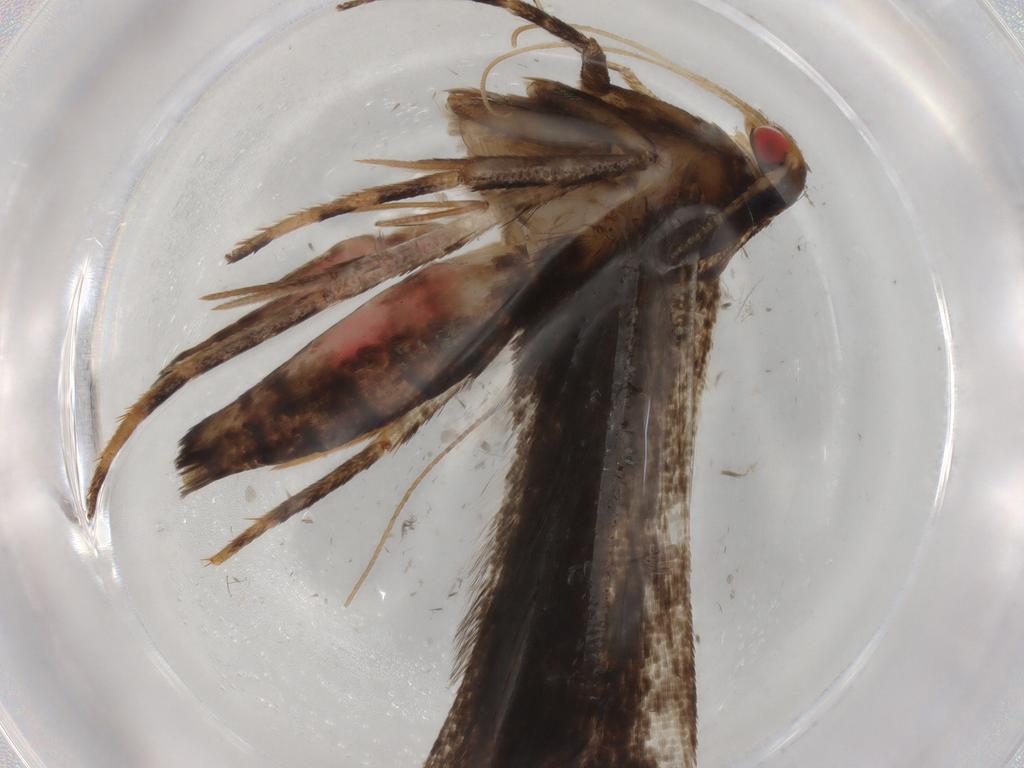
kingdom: Animalia
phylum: Arthropoda
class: Insecta
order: Lepidoptera
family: Gelechiidae
